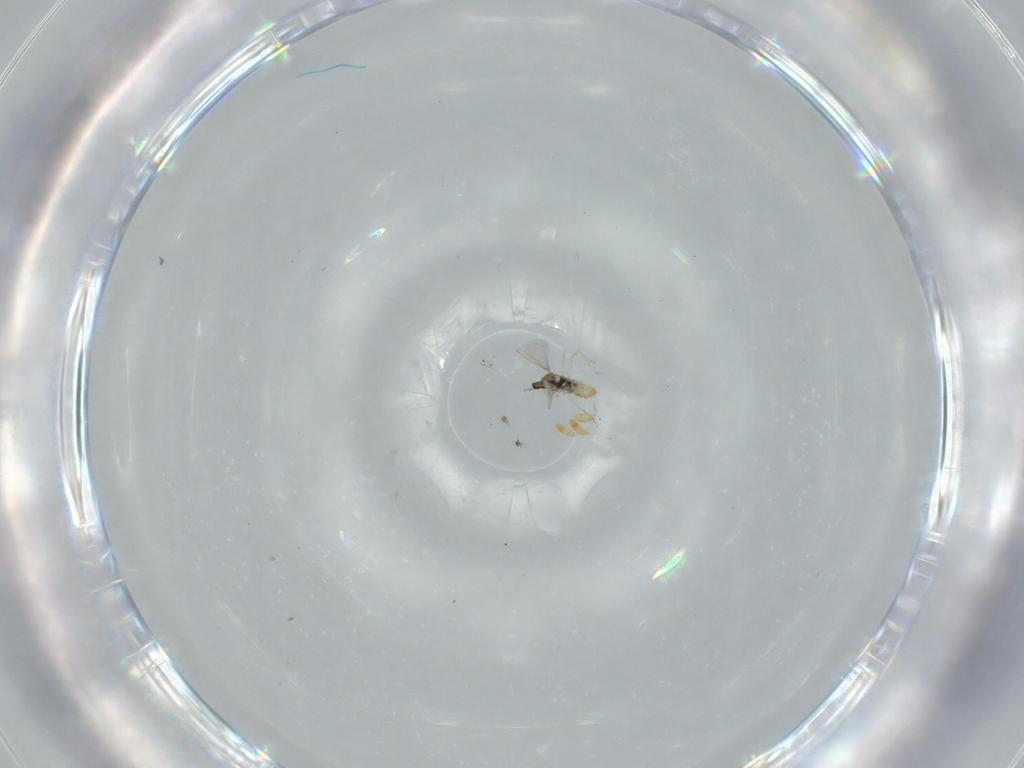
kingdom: Animalia
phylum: Arthropoda
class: Insecta
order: Diptera
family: Cecidomyiidae
